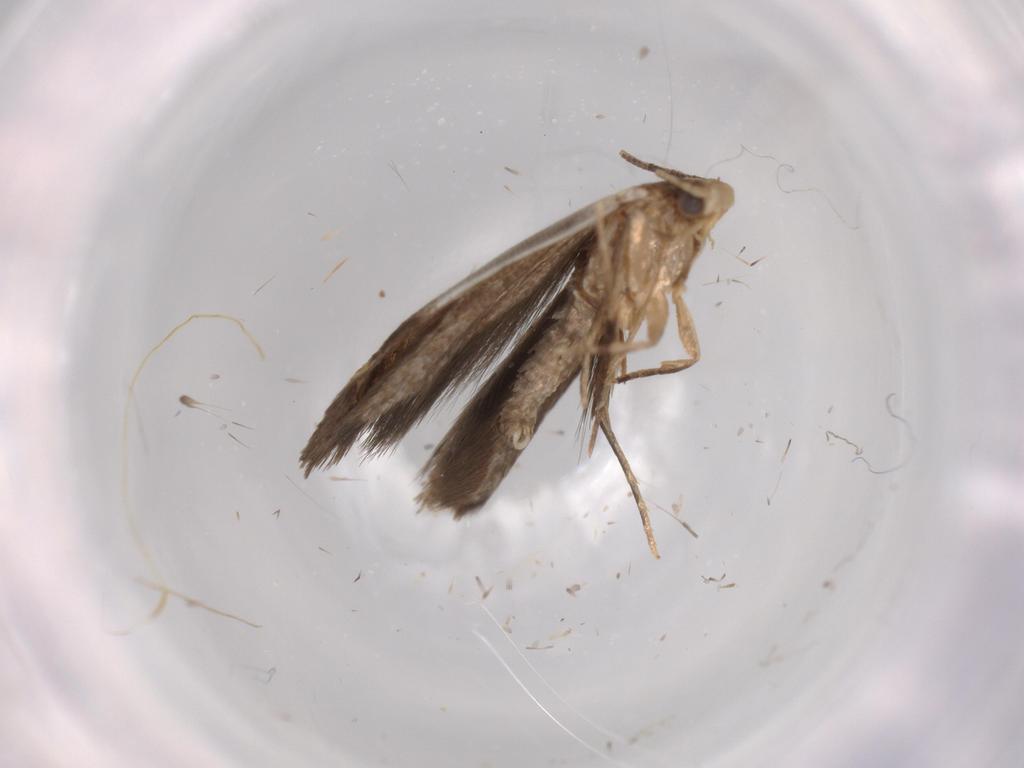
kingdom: Animalia
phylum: Arthropoda
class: Insecta
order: Lepidoptera
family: Tineidae
